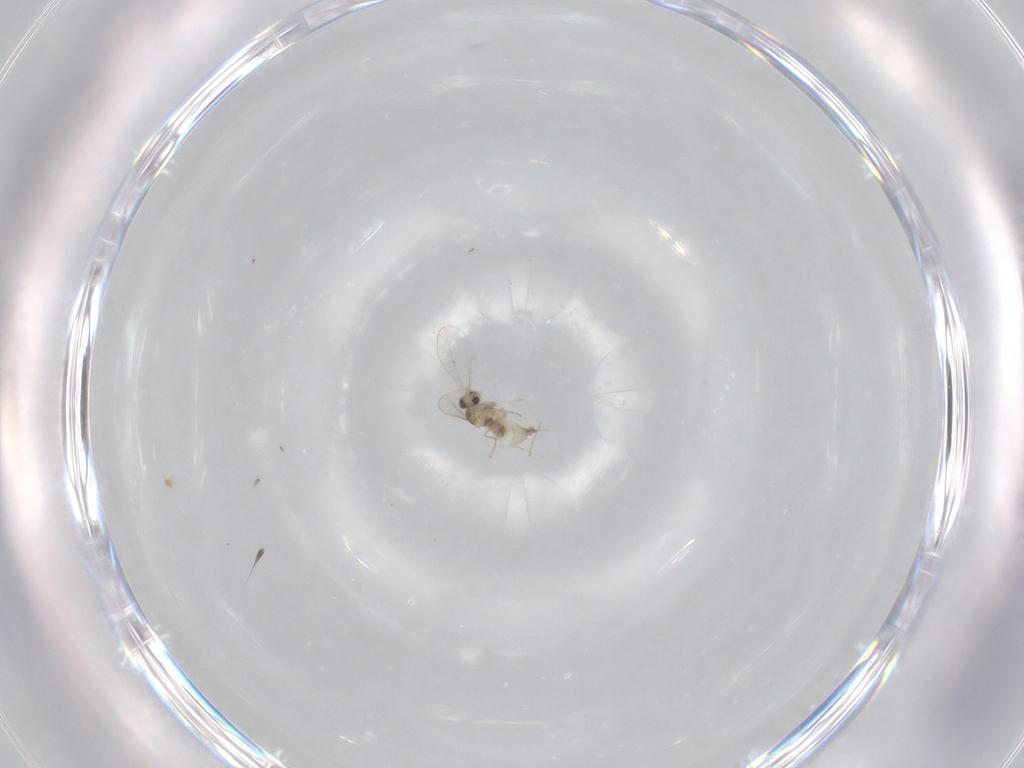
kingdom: Animalia
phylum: Arthropoda
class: Insecta
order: Diptera
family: Cecidomyiidae
